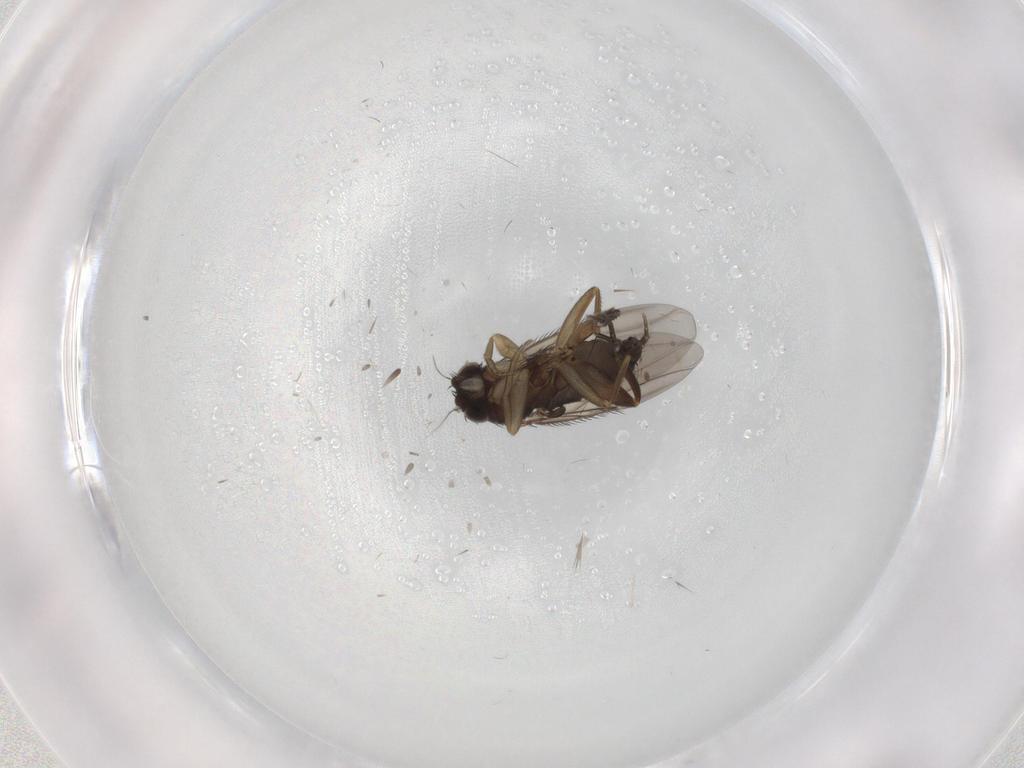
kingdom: Animalia
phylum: Arthropoda
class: Insecta
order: Diptera
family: Phoridae
